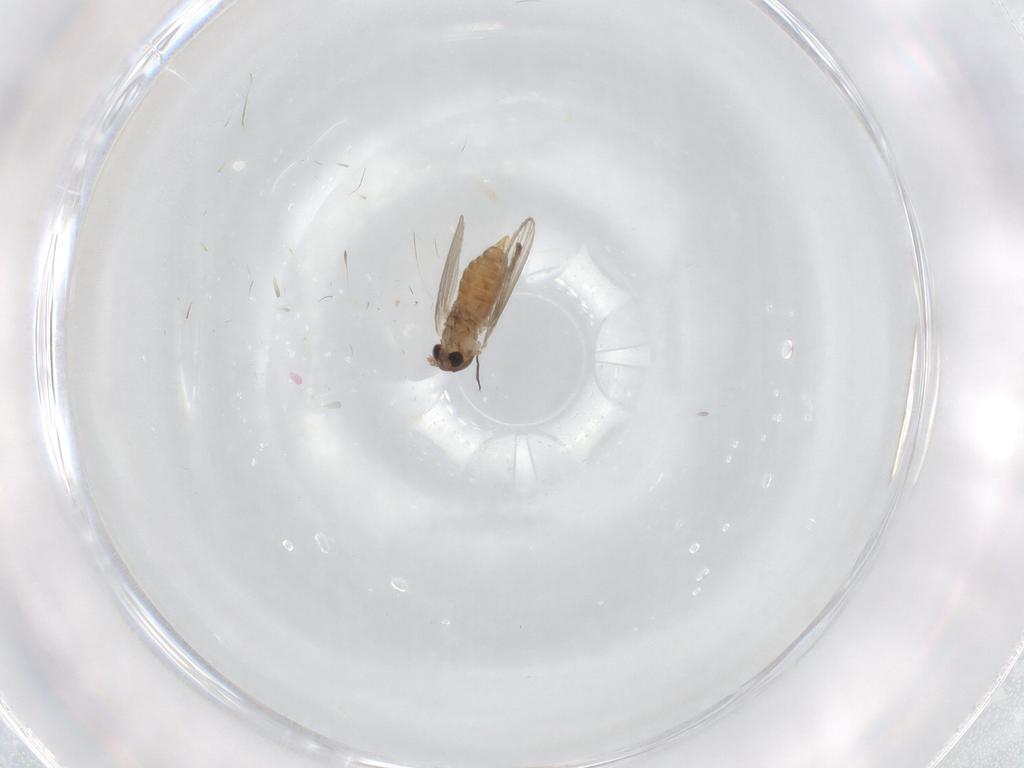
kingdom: Animalia
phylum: Arthropoda
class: Insecta
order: Diptera
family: Psychodidae
